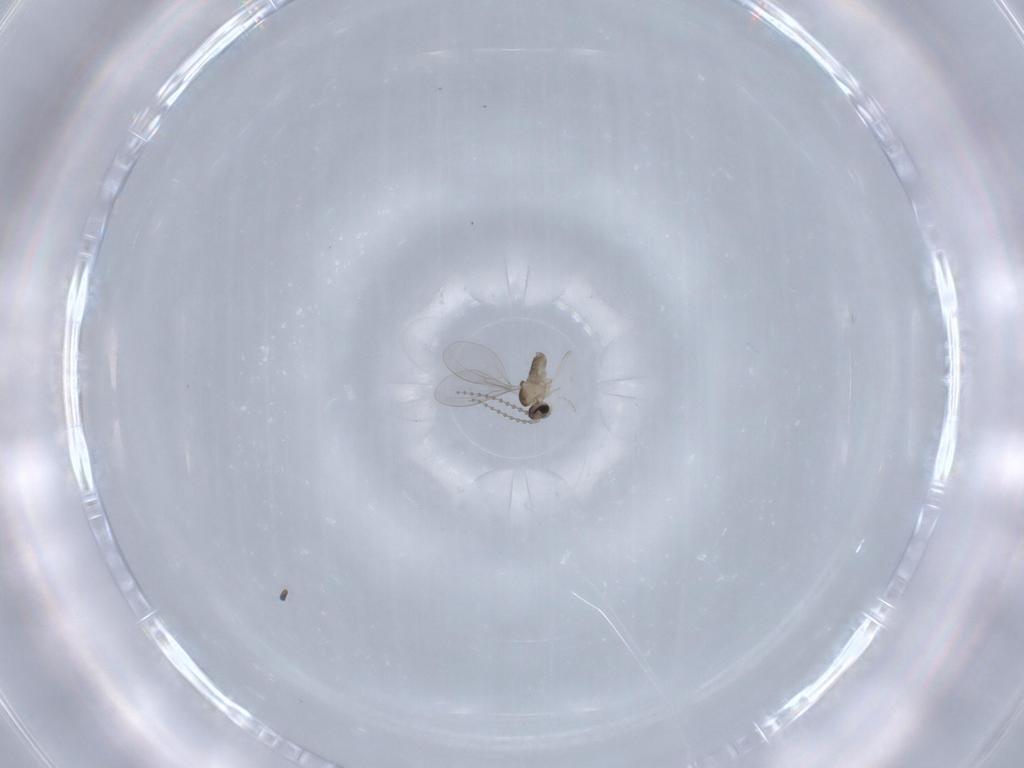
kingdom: Animalia
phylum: Arthropoda
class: Insecta
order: Diptera
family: Cecidomyiidae
